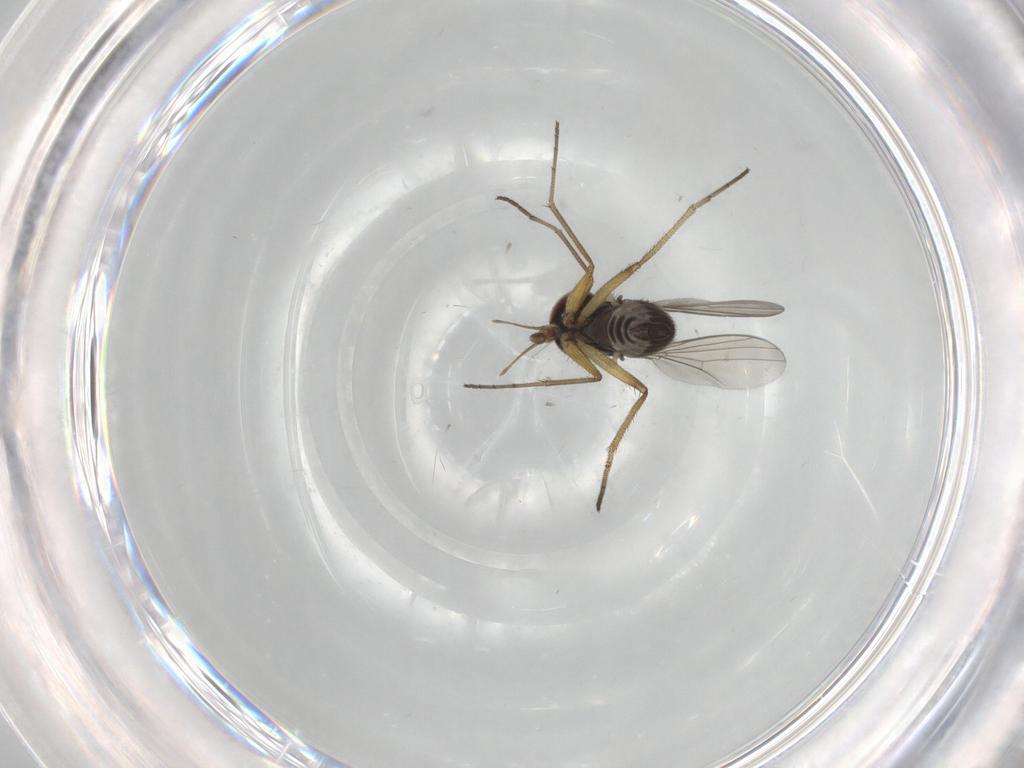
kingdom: Animalia
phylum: Arthropoda
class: Insecta
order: Diptera
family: Dolichopodidae
